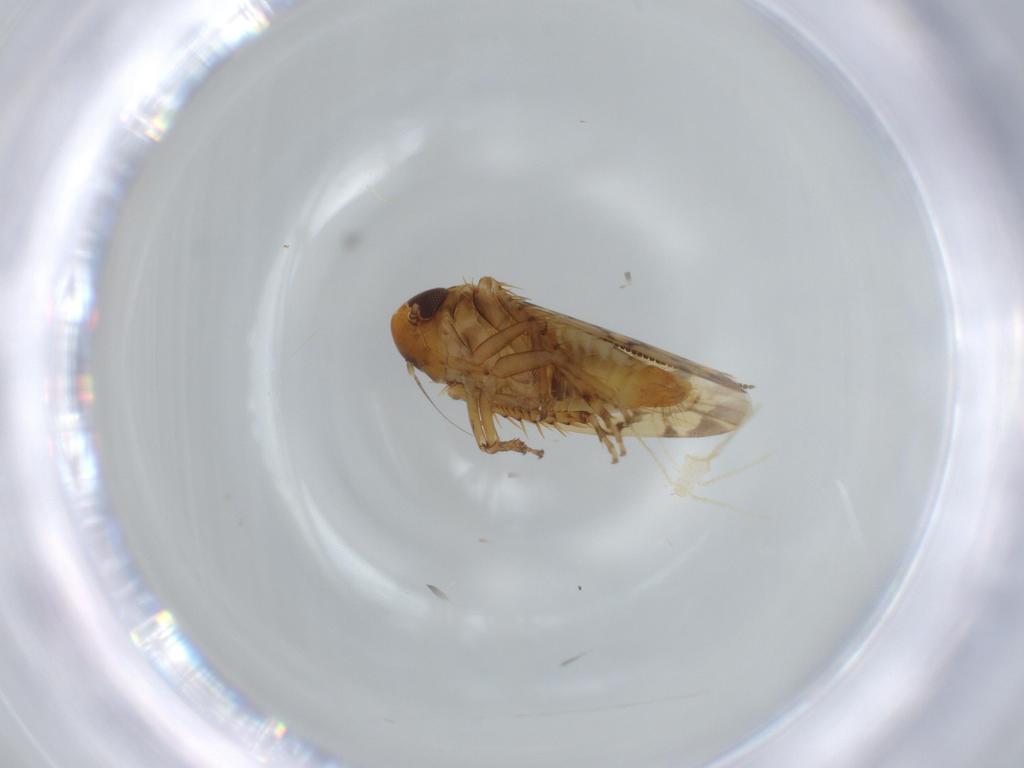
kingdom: Animalia
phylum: Arthropoda
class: Insecta
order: Hemiptera
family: Cicadellidae
